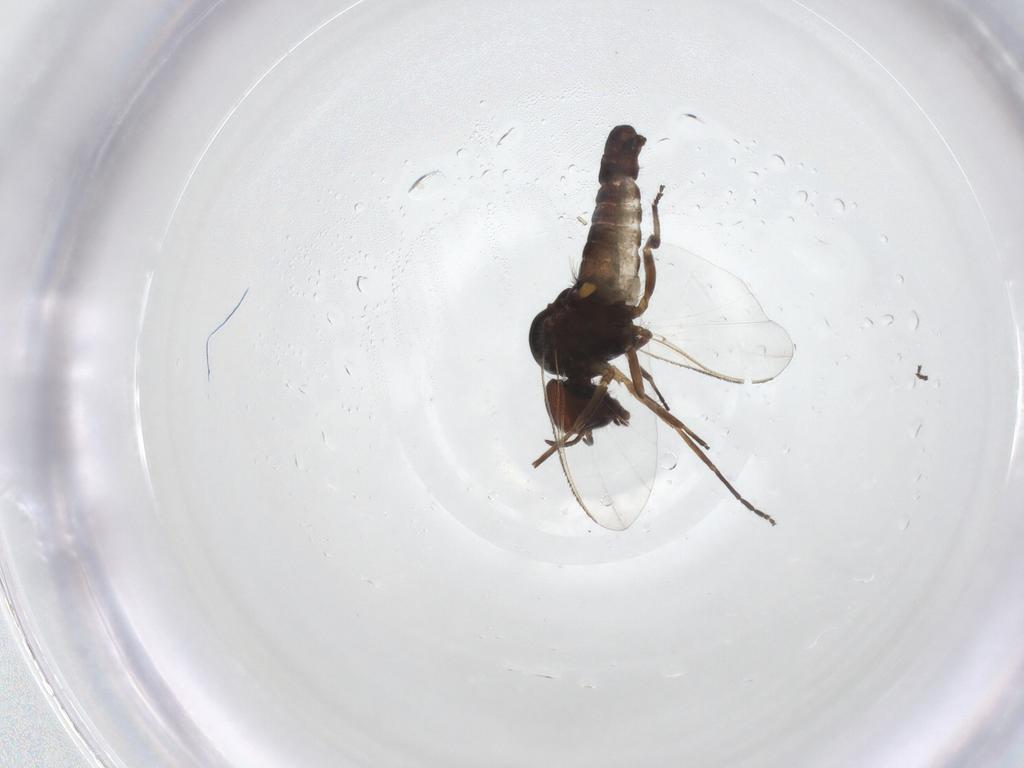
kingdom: Animalia
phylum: Arthropoda
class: Insecta
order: Diptera
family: Simuliidae
